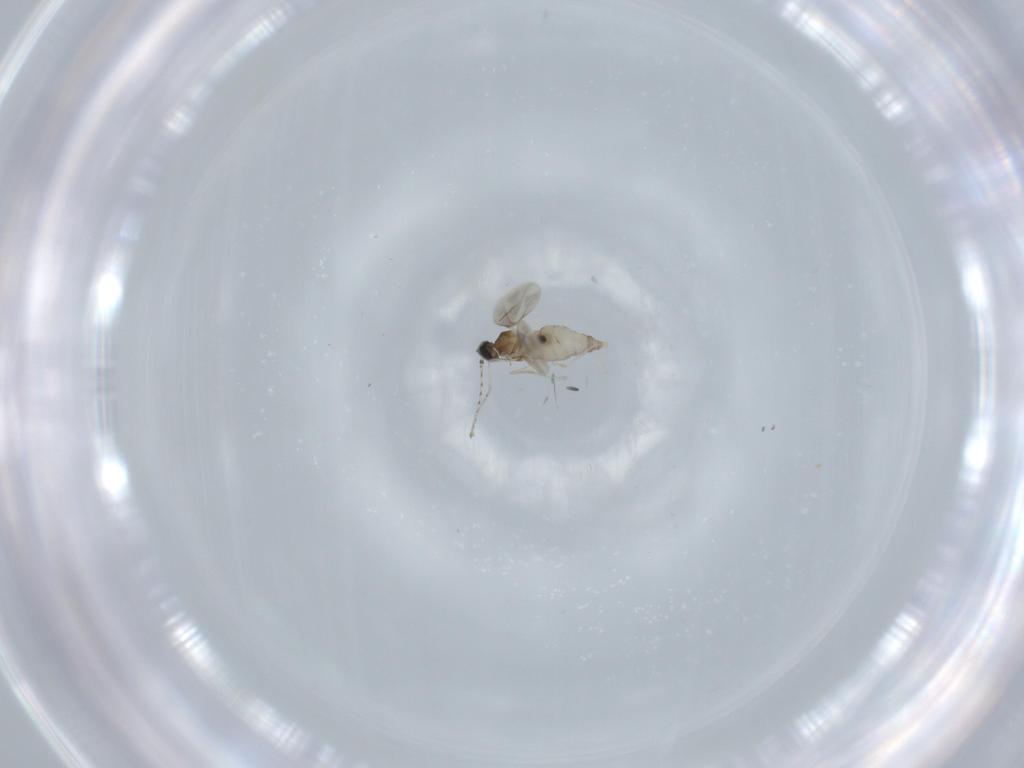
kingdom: Animalia
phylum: Arthropoda
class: Insecta
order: Diptera
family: Cecidomyiidae
